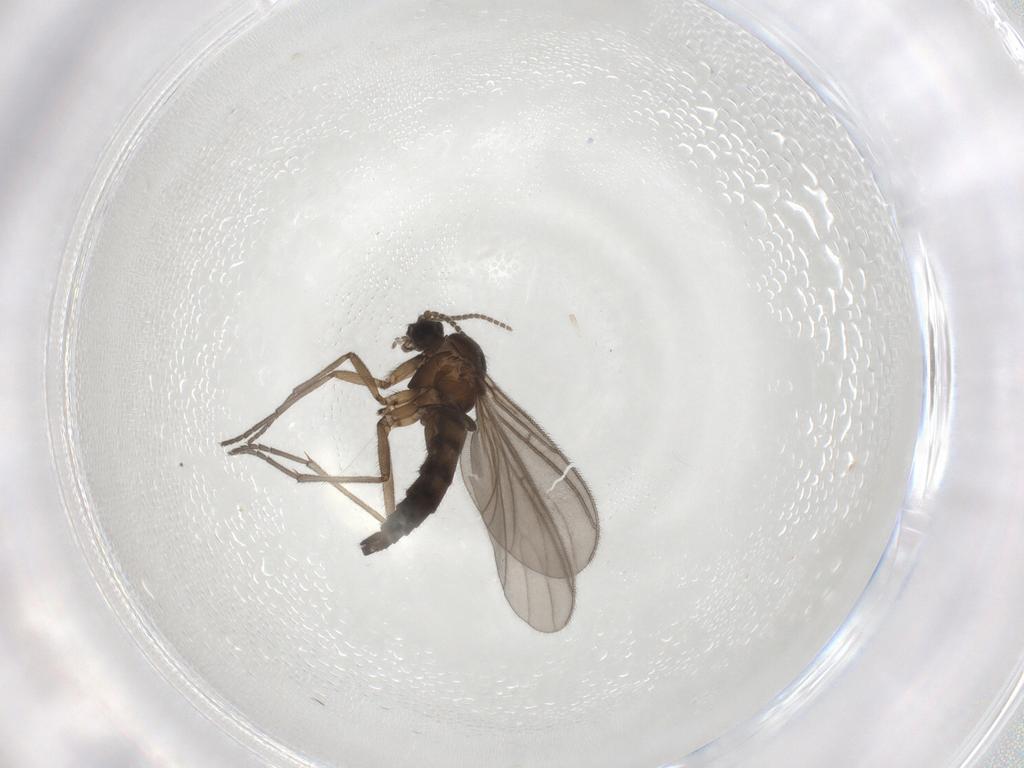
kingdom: Animalia
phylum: Arthropoda
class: Insecta
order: Diptera
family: Sciaridae
